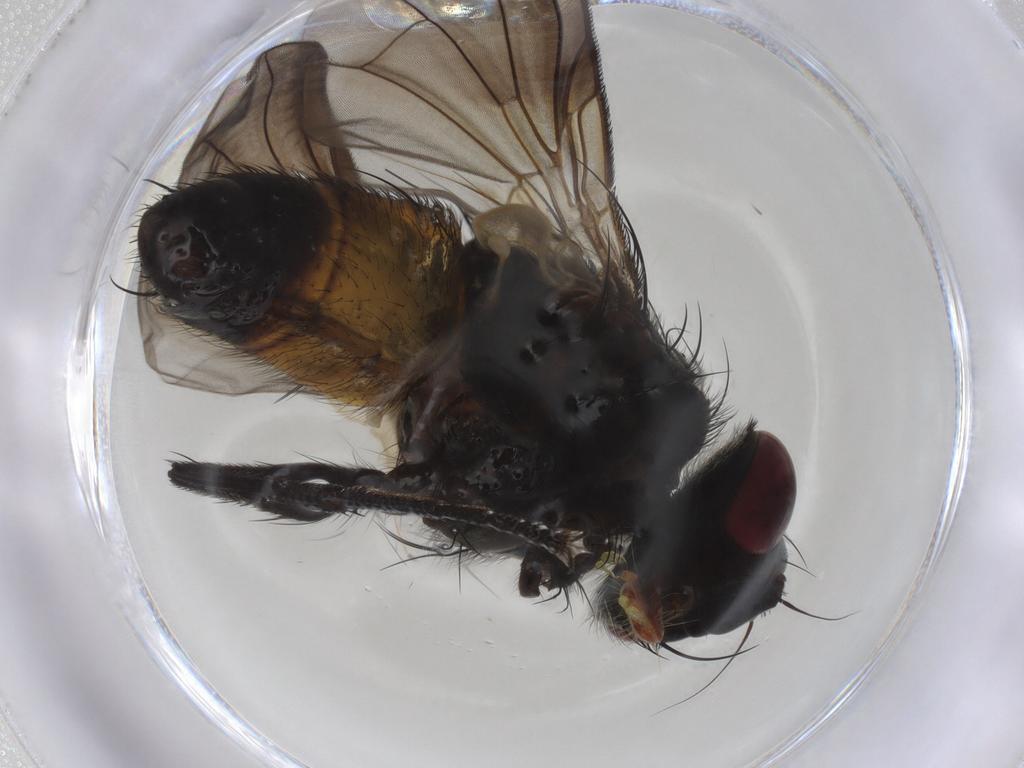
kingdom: Animalia
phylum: Arthropoda
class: Insecta
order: Diptera
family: Tachinidae
